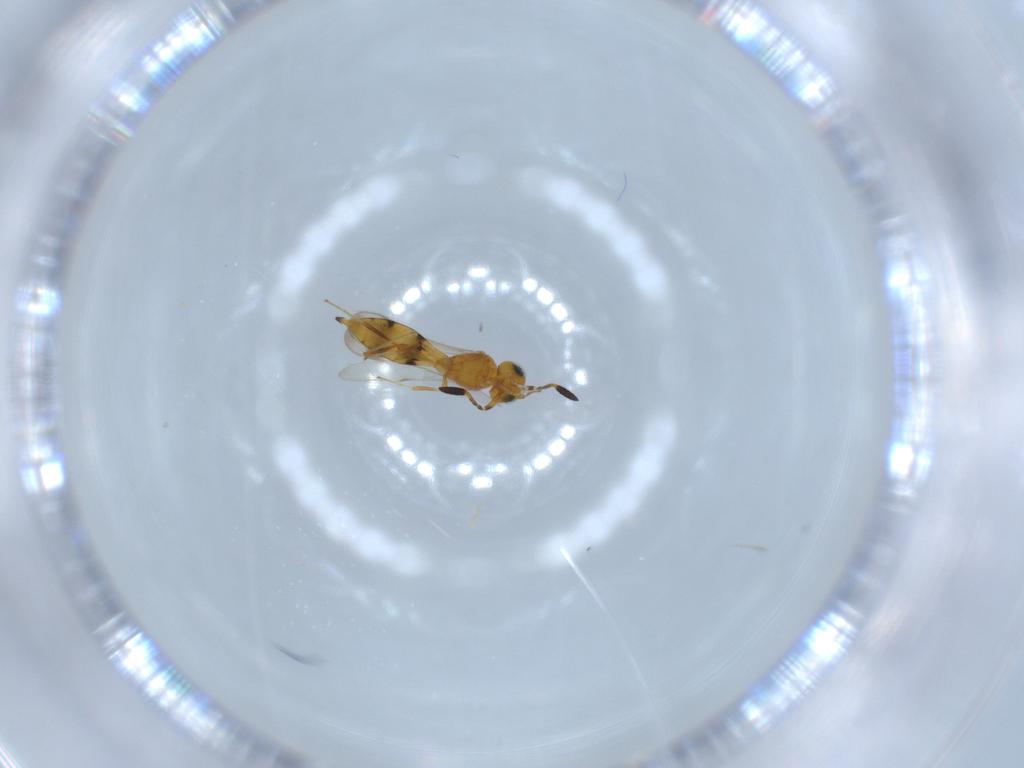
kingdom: Animalia
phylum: Arthropoda
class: Insecta
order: Hymenoptera
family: Scelionidae
